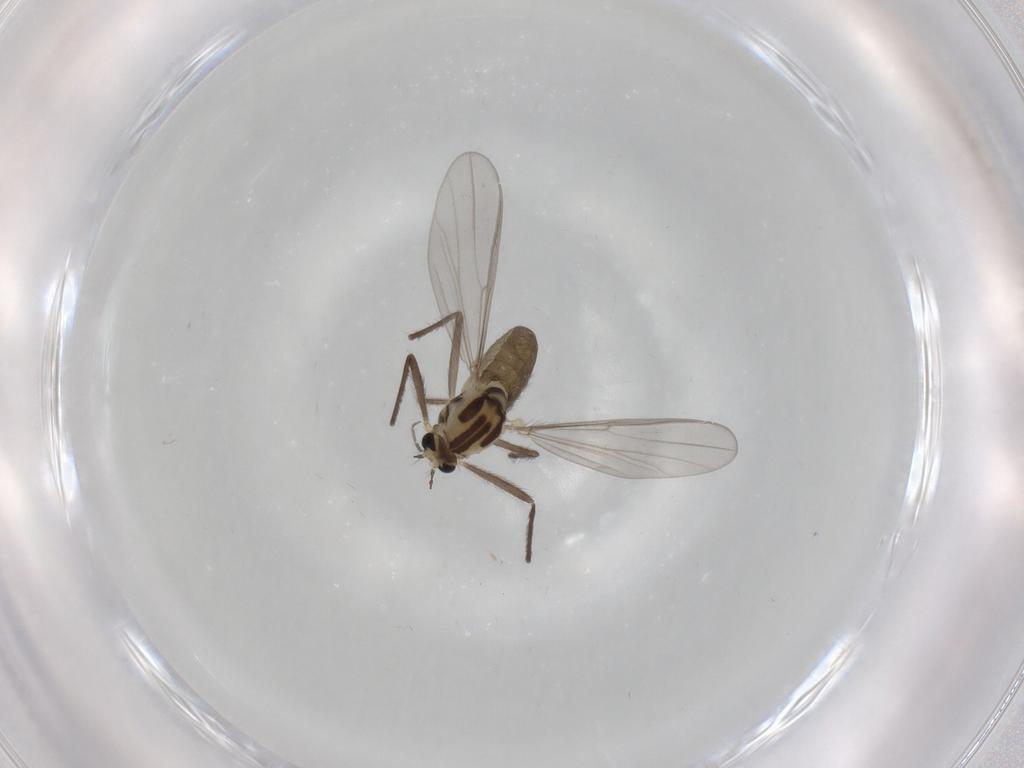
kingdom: Animalia
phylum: Arthropoda
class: Insecta
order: Diptera
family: Chironomidae
